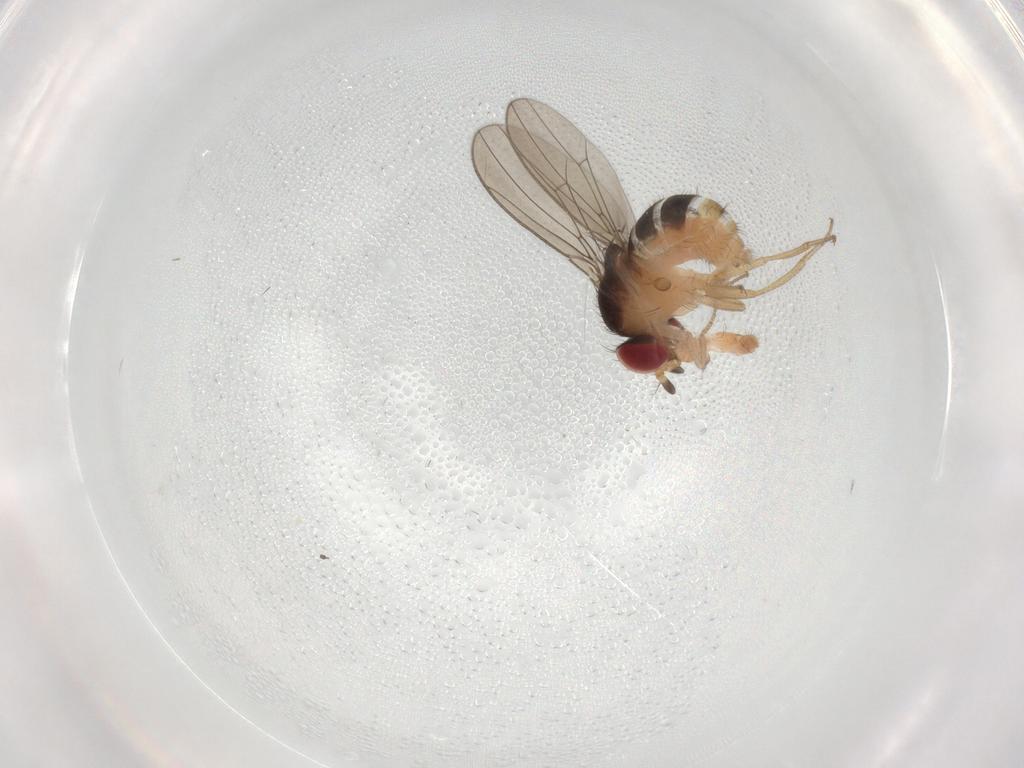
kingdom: Animalia
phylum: Arthropoda
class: Insecta
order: Diptera
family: Drosophilidae
